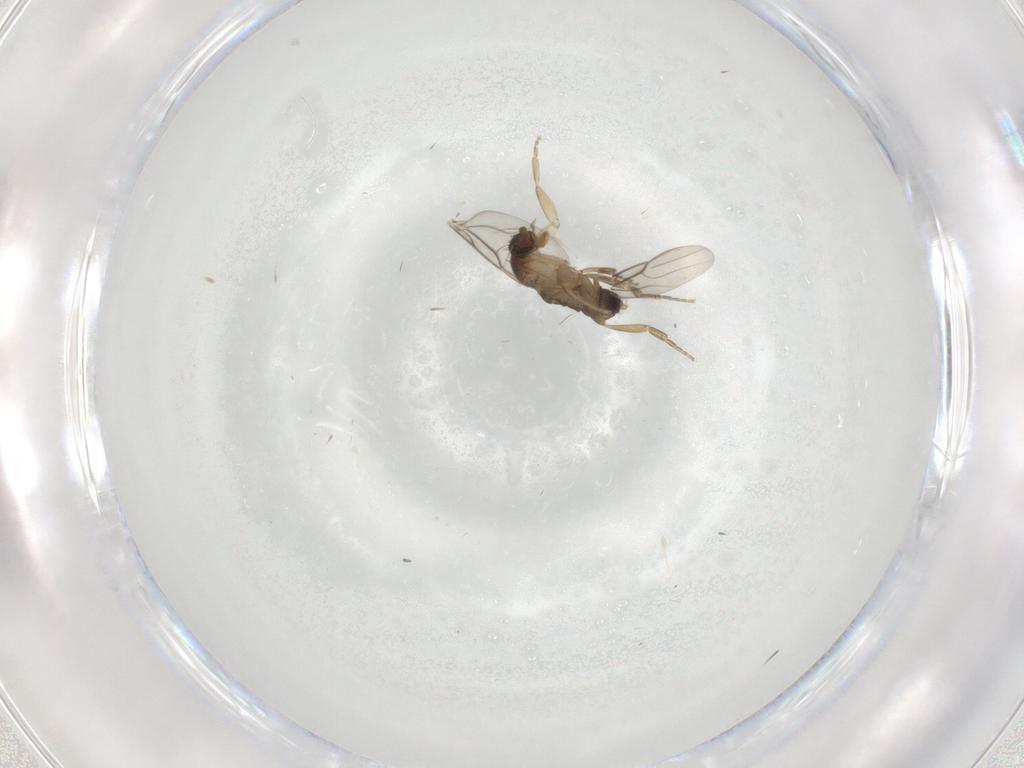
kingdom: Animalia
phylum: Arthropoda
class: Insecta
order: Diptera
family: Phoridae
